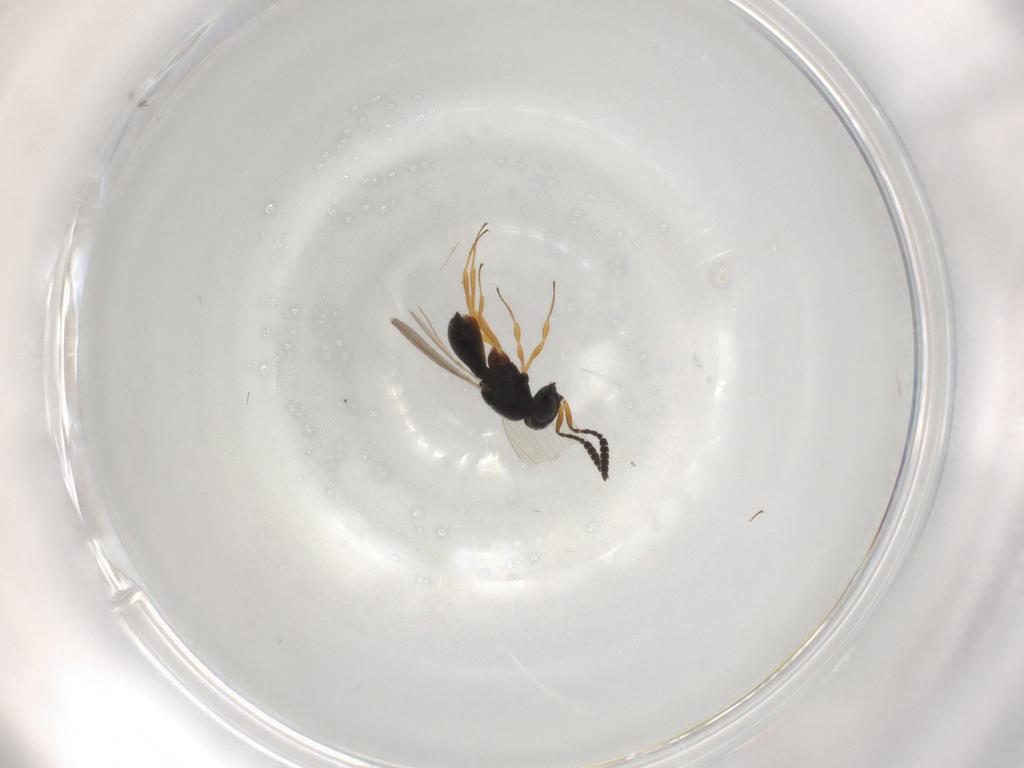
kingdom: Animalia
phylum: Arthropoda
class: Insecta
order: Hymenoptera
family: Scelionidae
